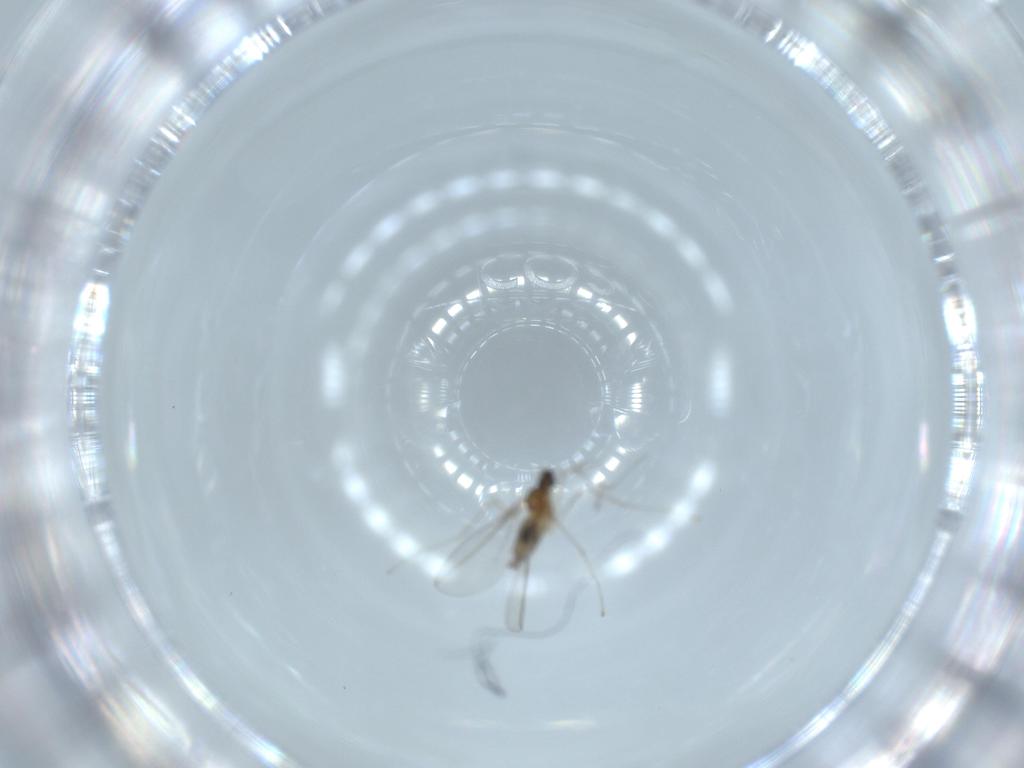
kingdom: Animalia
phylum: Arthropoda
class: Insecta
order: Diptera
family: Cecidomyiidae
